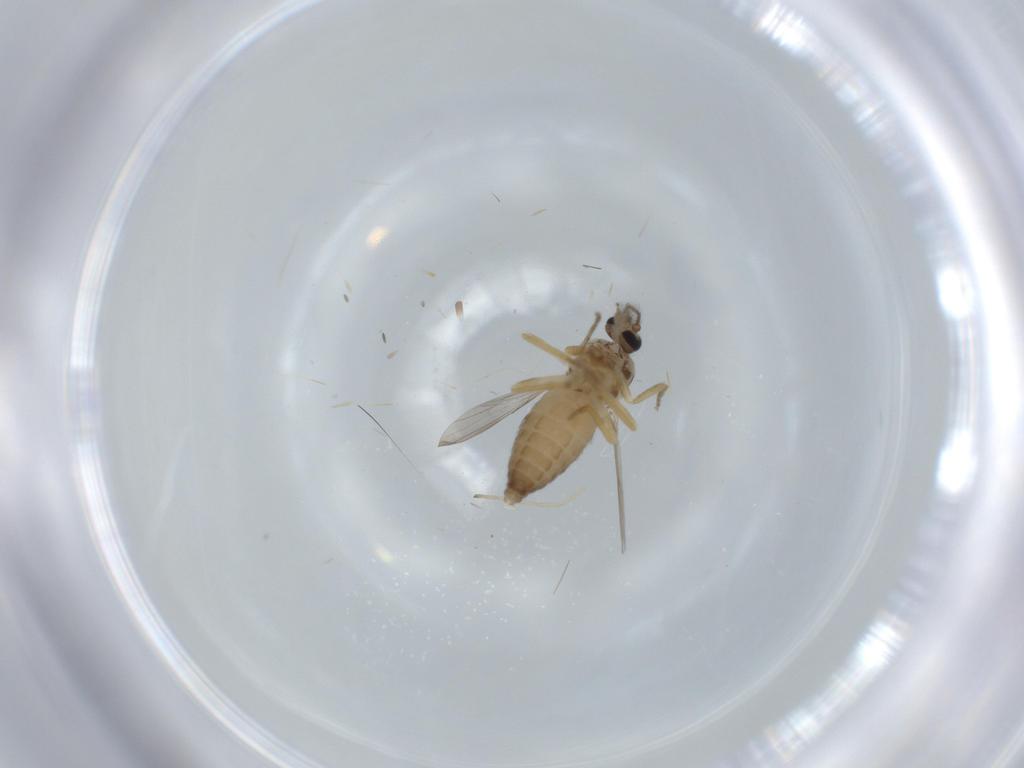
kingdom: Animalia
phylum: Arthropoda
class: Insecta
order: Diptera
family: Ceratopogonidae
